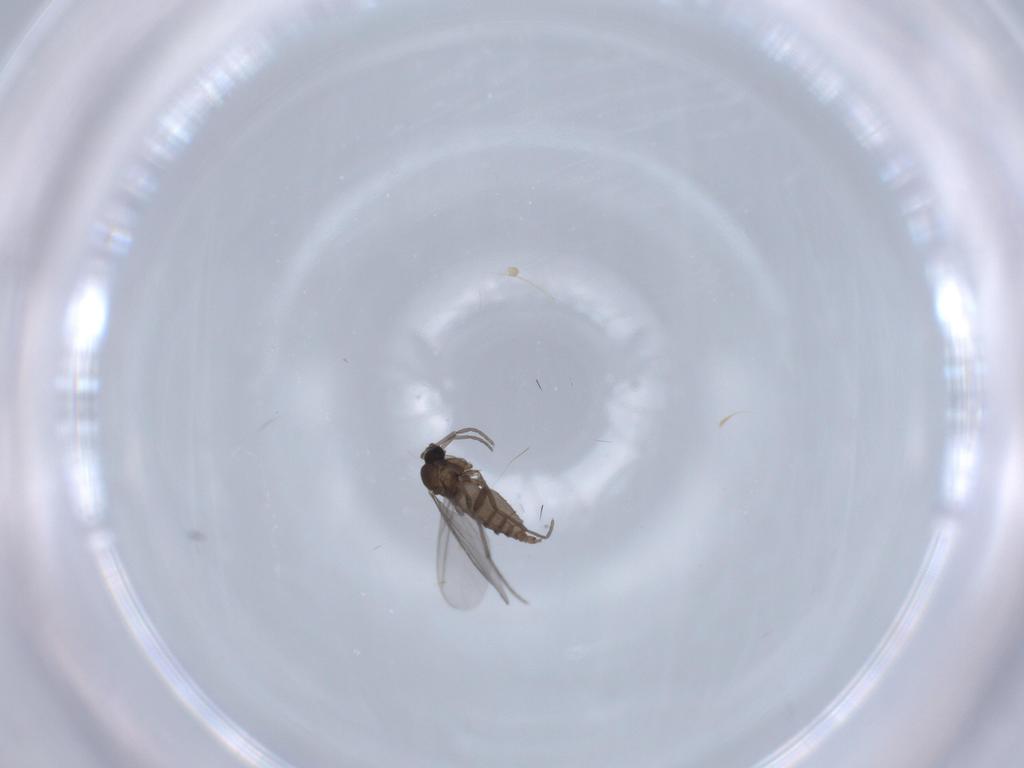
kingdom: Animalia
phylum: Arthropoda
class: Insecta
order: Diptera
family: Sciaridae
